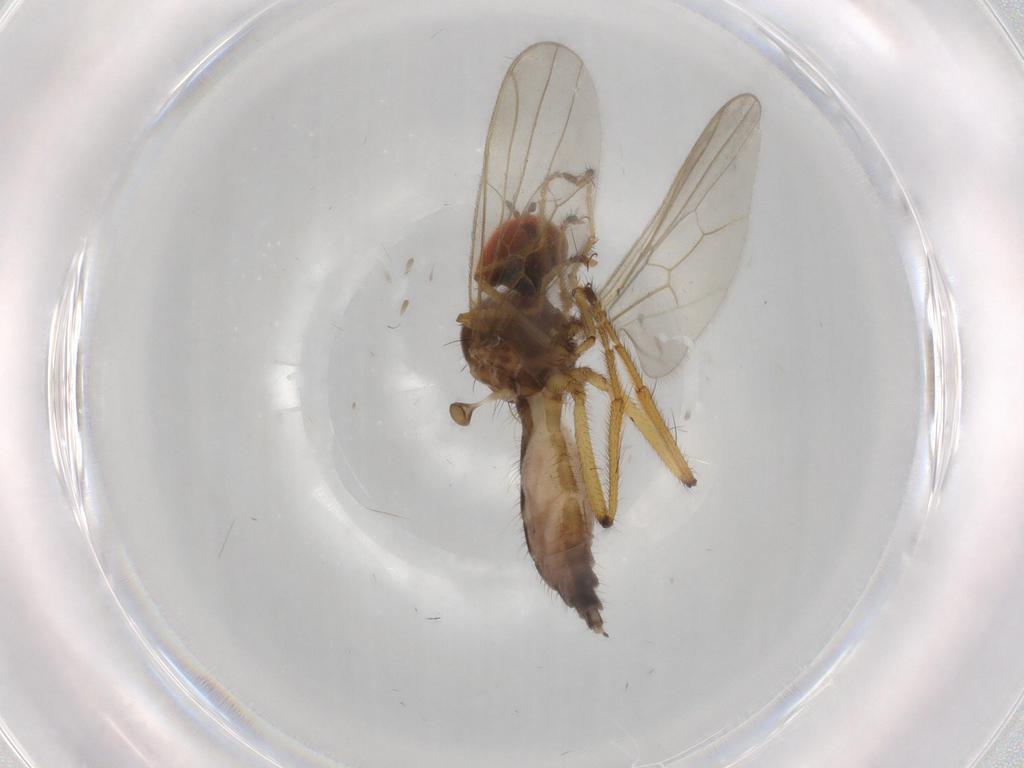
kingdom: Animalia
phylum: Arthropoda
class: Insecta
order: Diptera
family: Hybotidae
